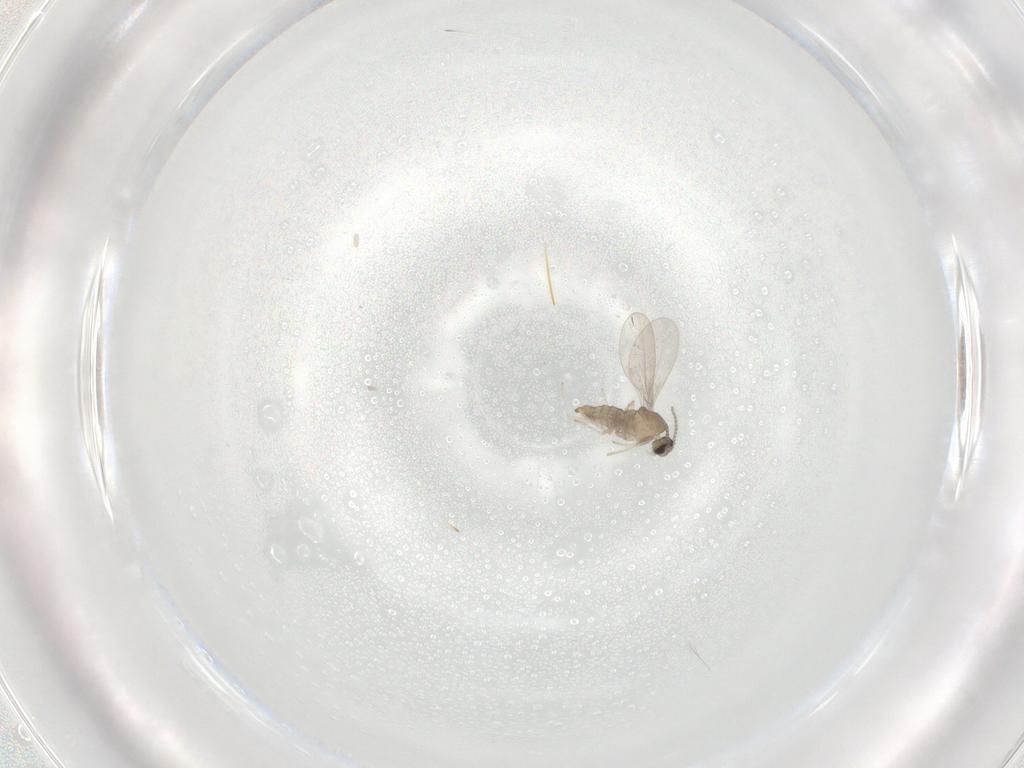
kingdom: Animalia
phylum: Arthropoda
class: Insecta
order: Diptera
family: Cecidomyiidae
